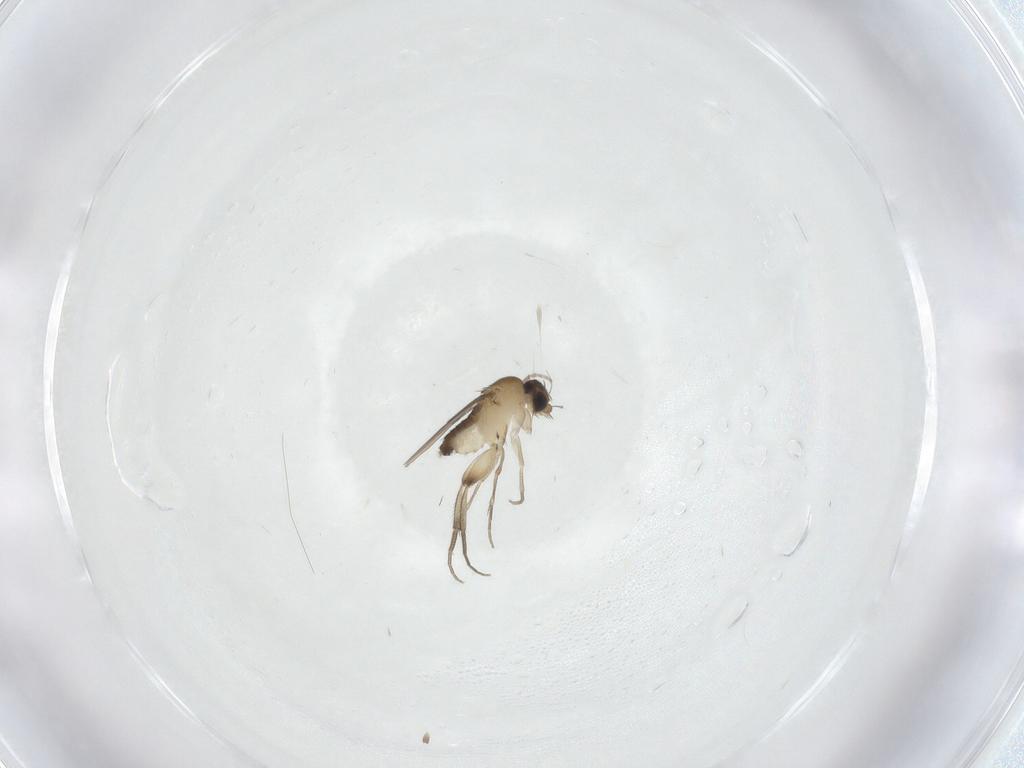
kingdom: Animalia
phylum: Arthropoda
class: Insecta
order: Diptera
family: Phoridae
